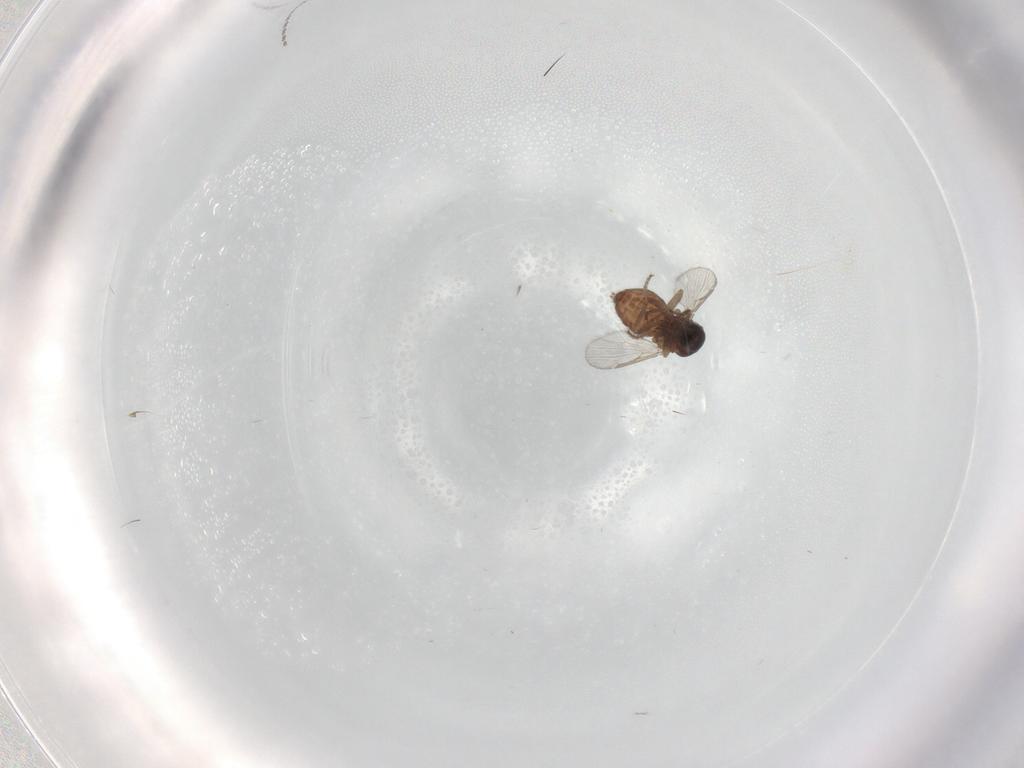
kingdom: Animalia
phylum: Arthropoda
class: Insecta
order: Diptera
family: Ceratopogonidae
